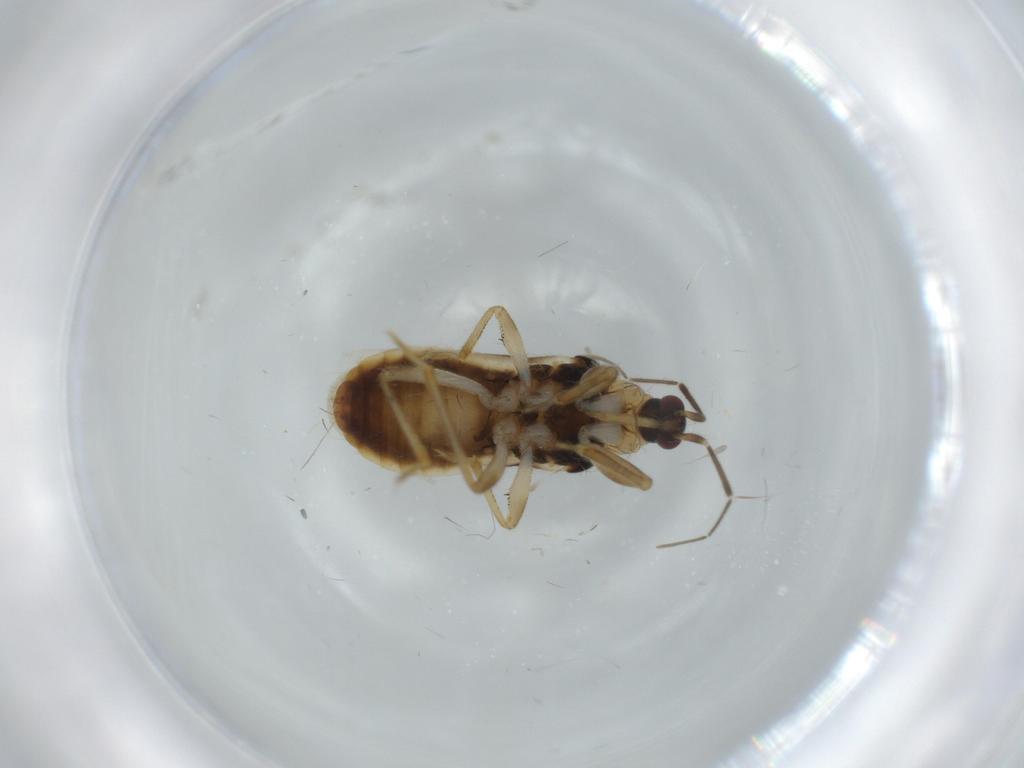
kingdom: Animalia
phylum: Arthropoda
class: Insecta
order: Hemiptera
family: Nabidae
